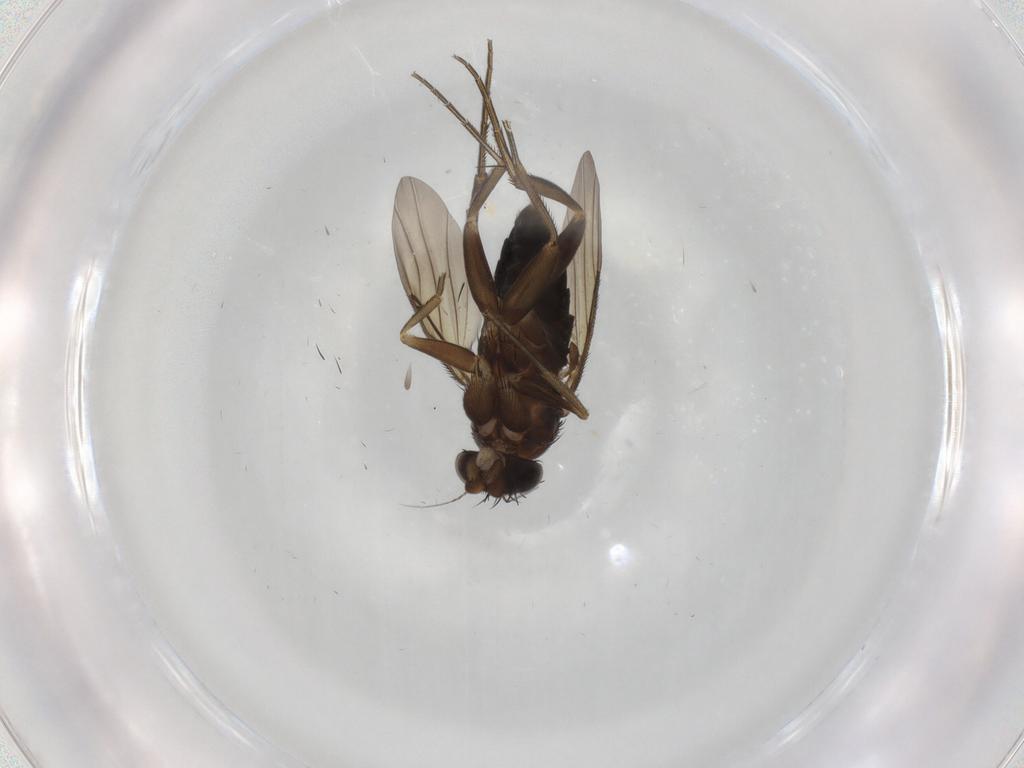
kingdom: Animalia
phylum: Arthropoda
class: Insecta
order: Diptera
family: Phoridae
